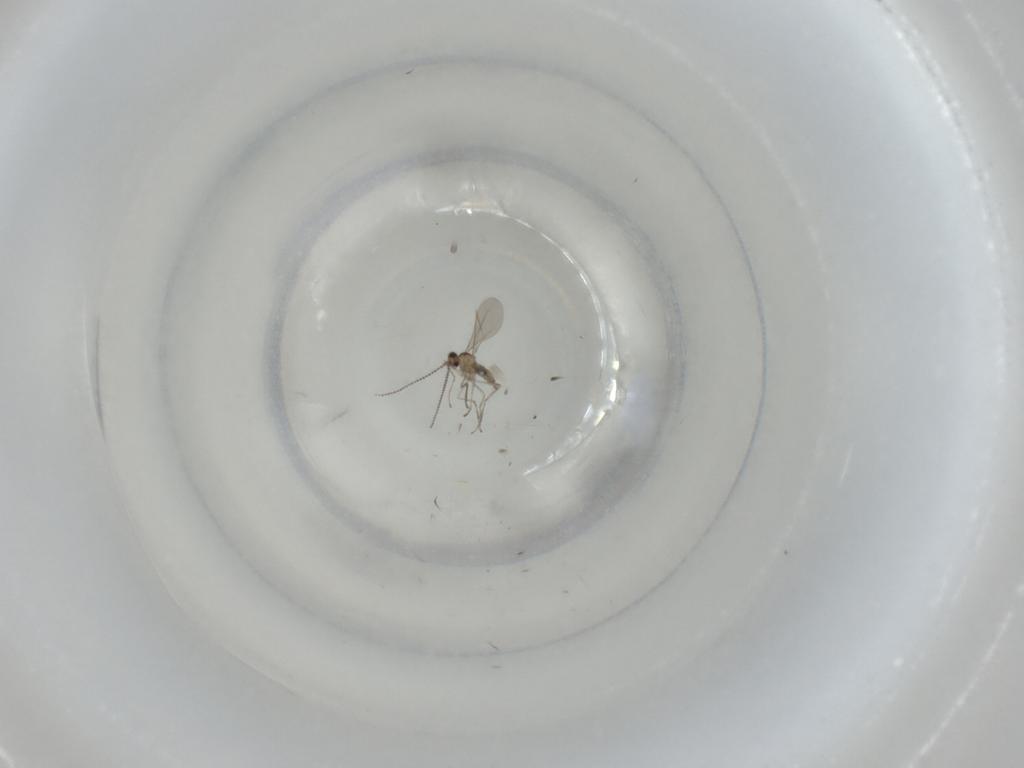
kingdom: Animalia
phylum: Arthropoda
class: Insecta
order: Diptera
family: Cecidomyiidae
